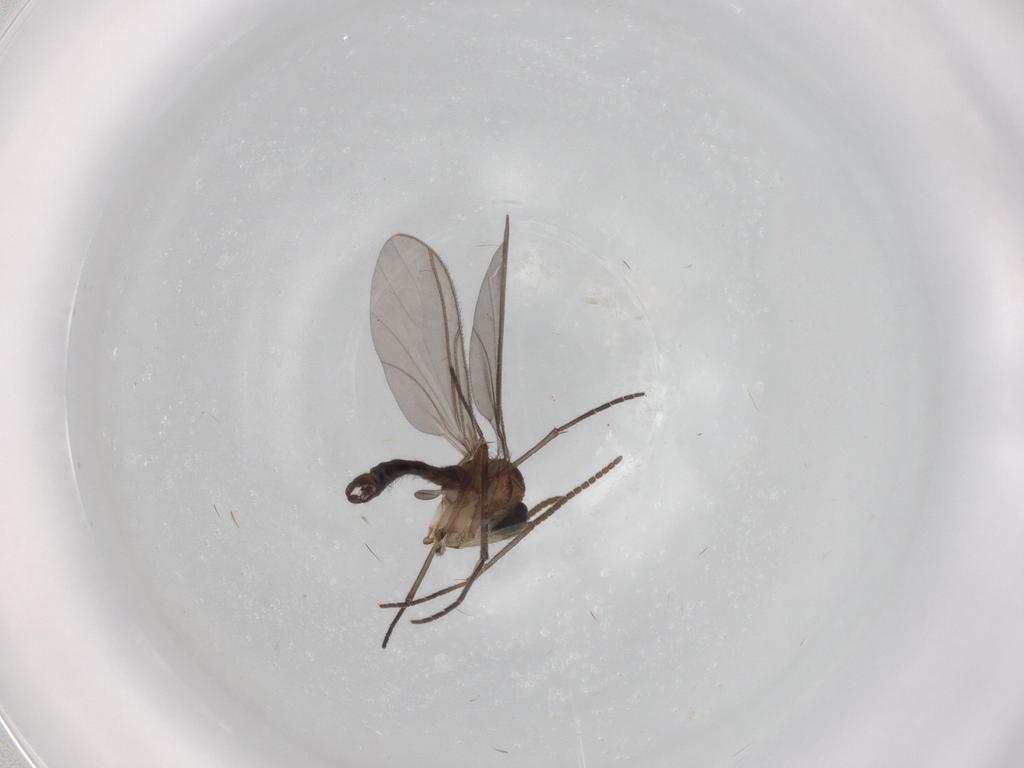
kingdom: Animalia
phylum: Arthropoda
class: Insecta
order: Diptera
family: Sciaridae
